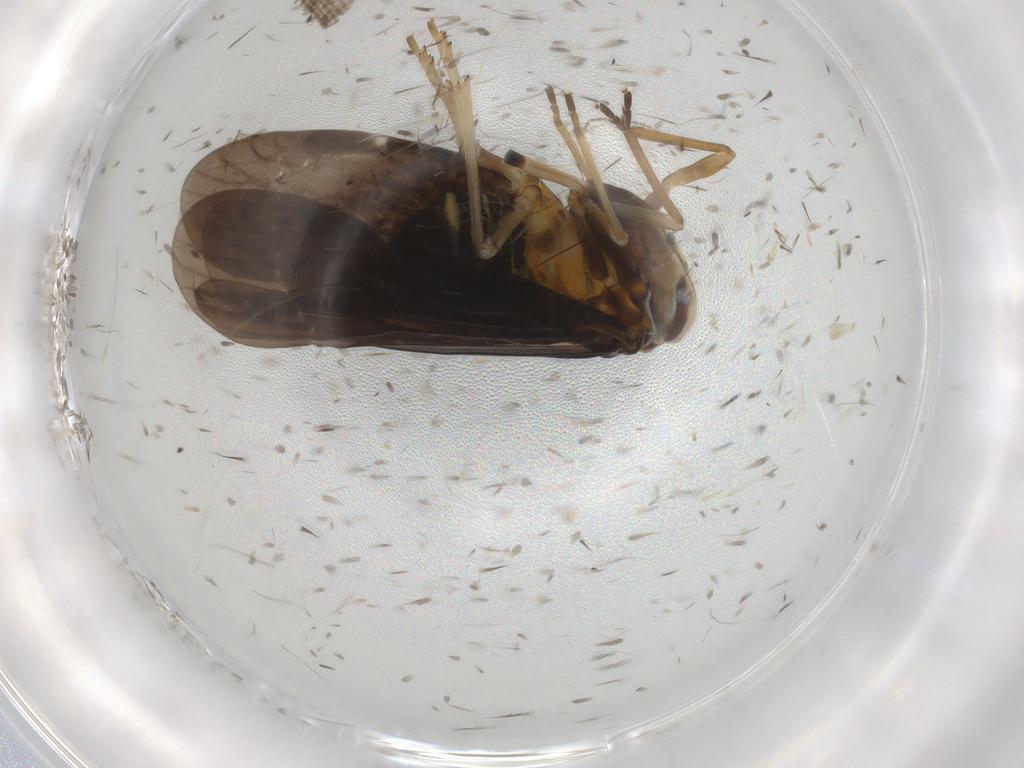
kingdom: Animalia
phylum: Arthropoda
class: Insecta
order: Hemiptera
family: Derbidae
